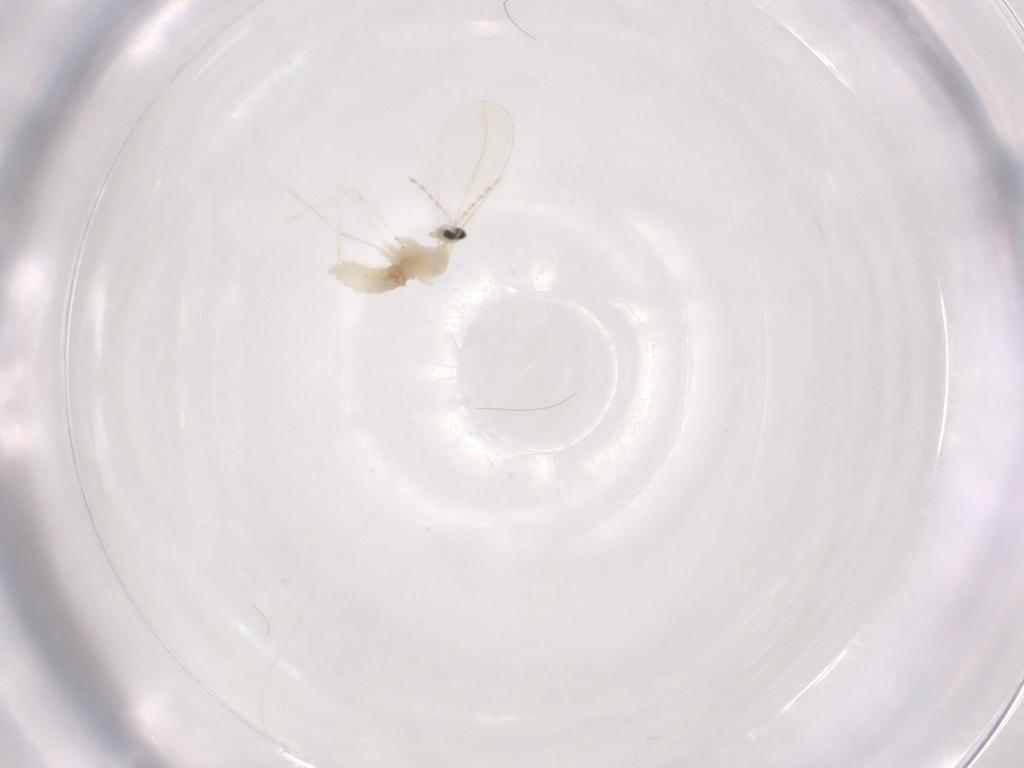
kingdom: Animalia
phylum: Arthropoda
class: Insecta
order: Diptera
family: Cecidomyiidae
